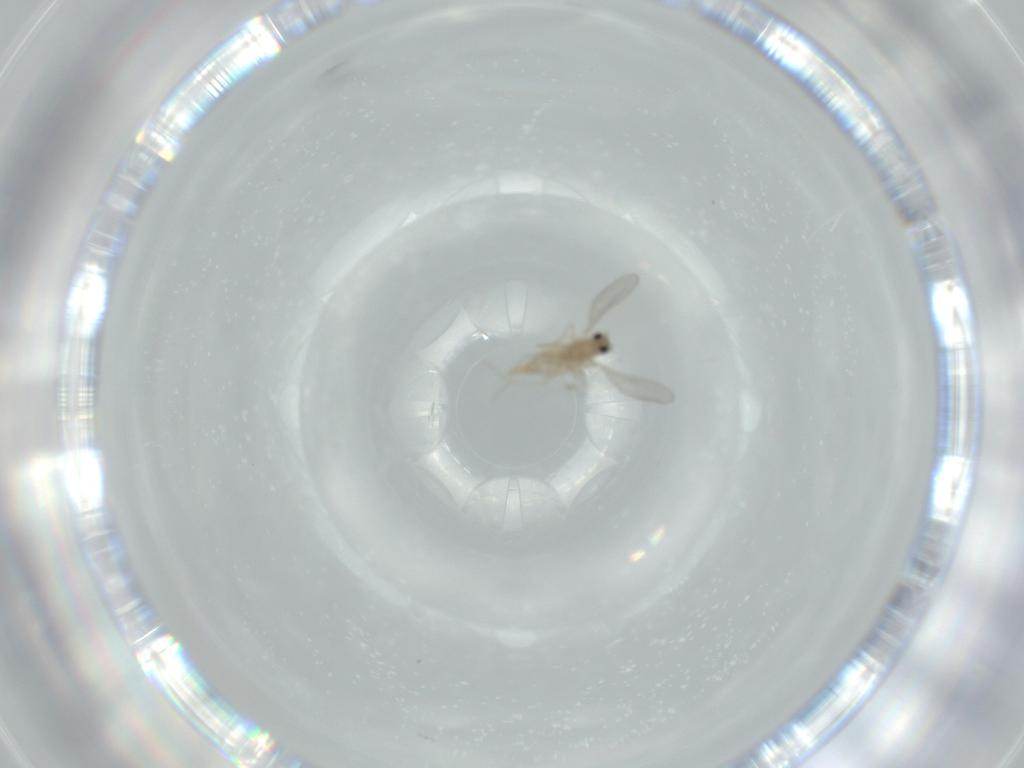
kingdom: Animalia
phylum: Arthropoda
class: Insecta
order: Diptera
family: Cecidomyiidae
